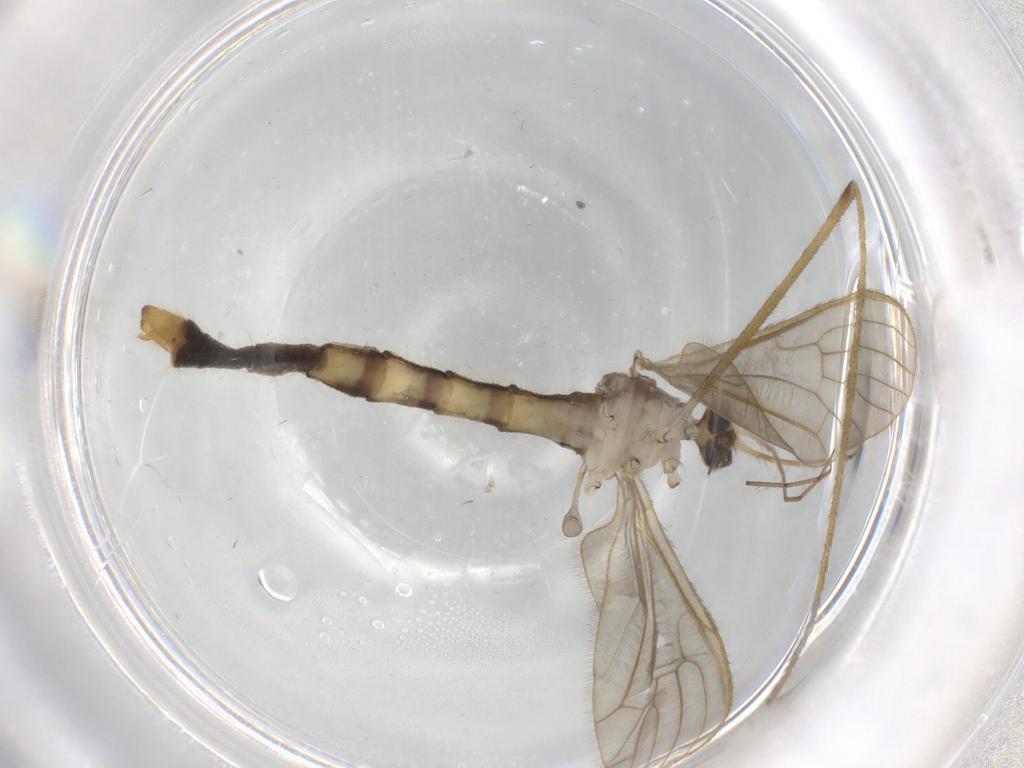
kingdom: Animalia
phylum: Arthropoda
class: Insecta
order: Diptera
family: Limoniidae
